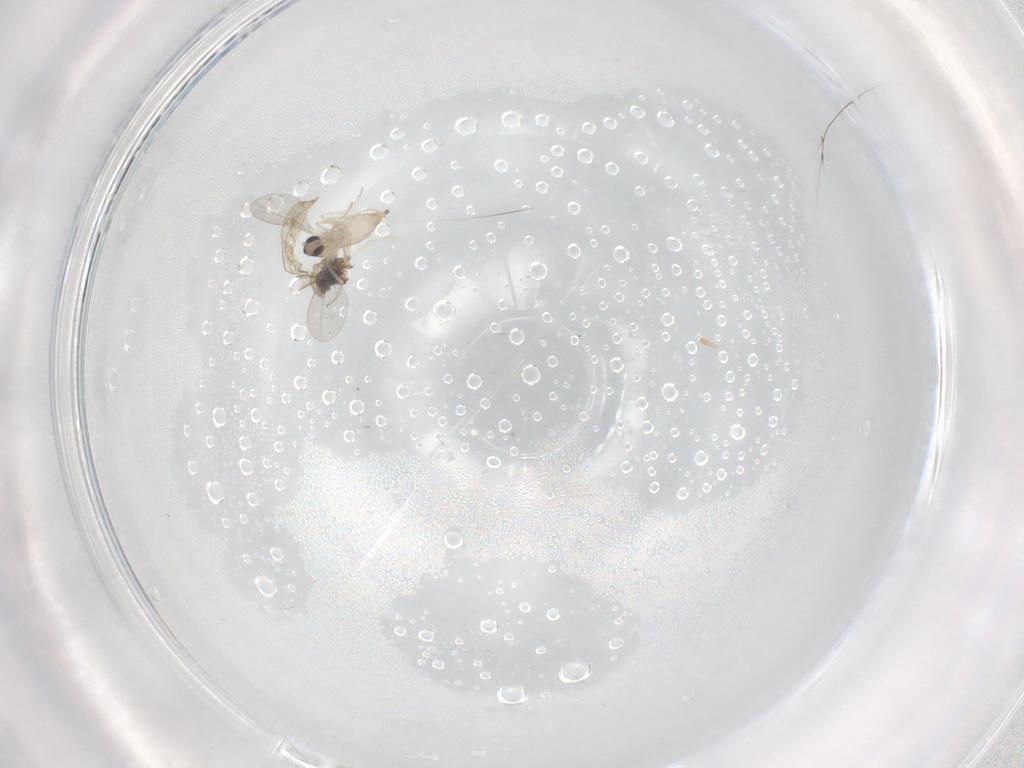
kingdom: Animalia
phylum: Arthropoda
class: Insecta
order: Diptera
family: Cecidomyiidae
